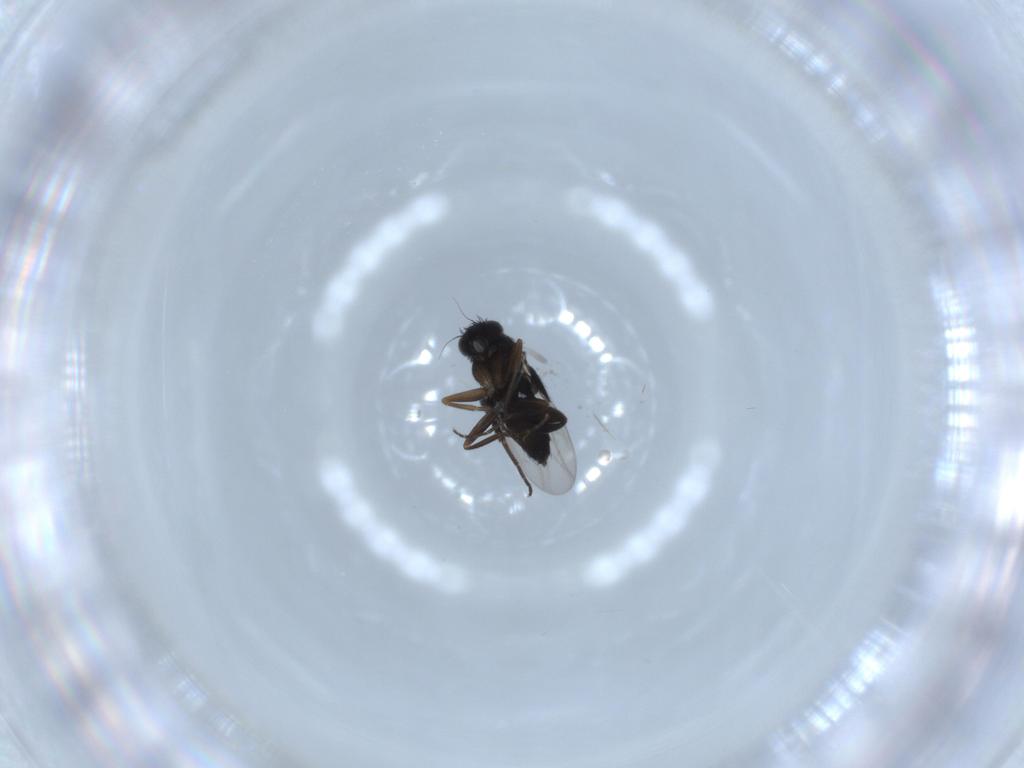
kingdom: Animalia
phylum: Arthropoda
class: Insecta
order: Diptera
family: Phoridae
